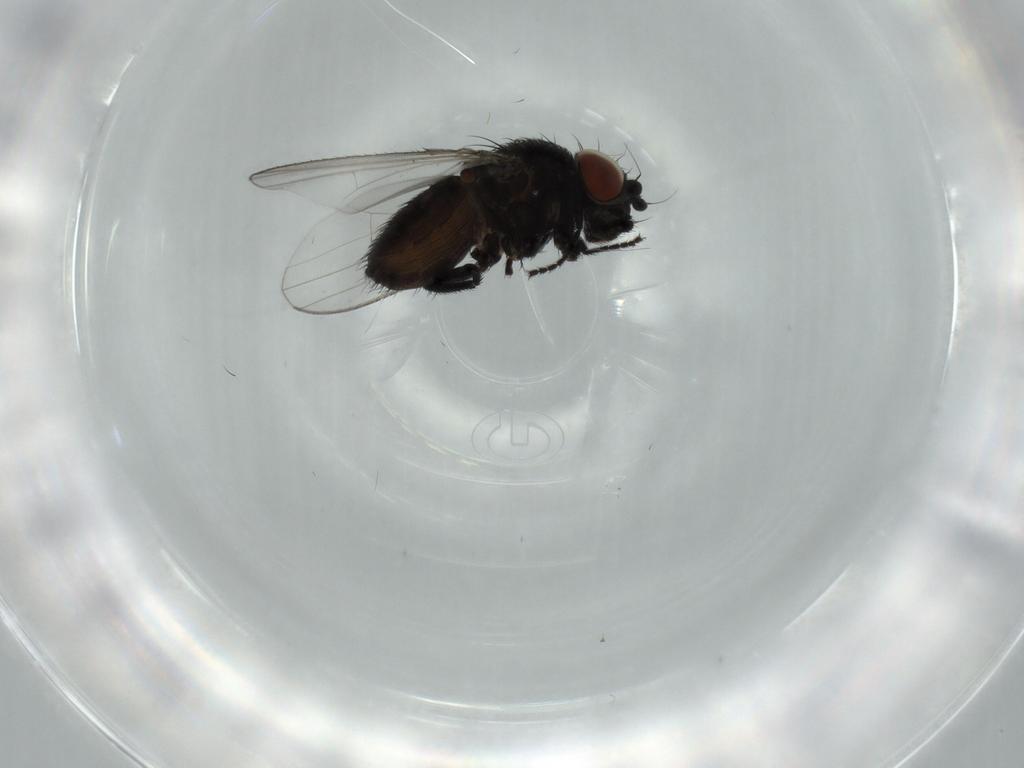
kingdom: Animalia
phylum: Arthropoda
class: Insecta
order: Diptera
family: Milichiidae
